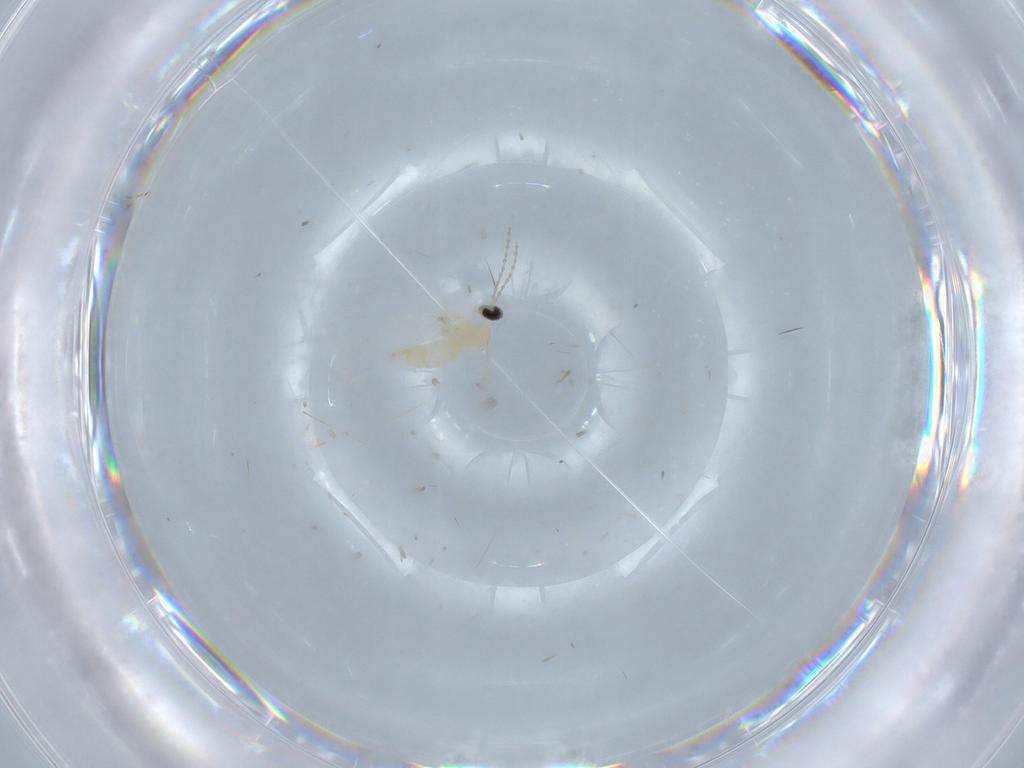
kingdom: Animalia
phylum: Arthropoda
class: Insecta
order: Diptera
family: Cecidomyiidae
